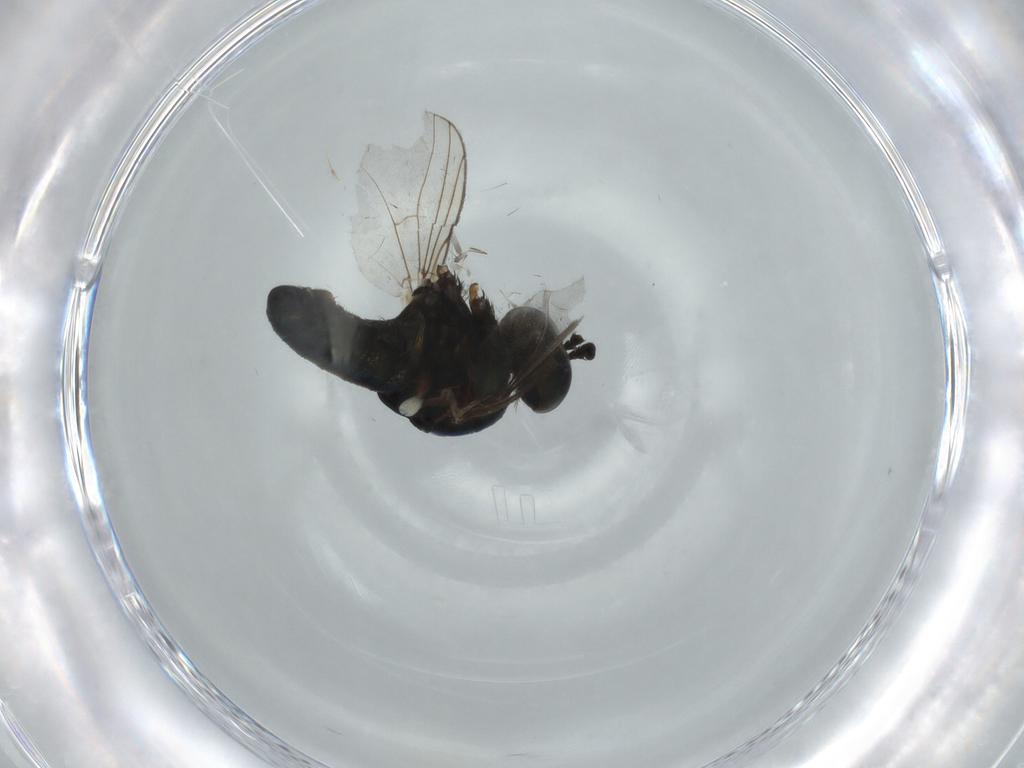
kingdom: Animalia
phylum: Arthropoda
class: Insecta
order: Diptera
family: Dolichopodidae
